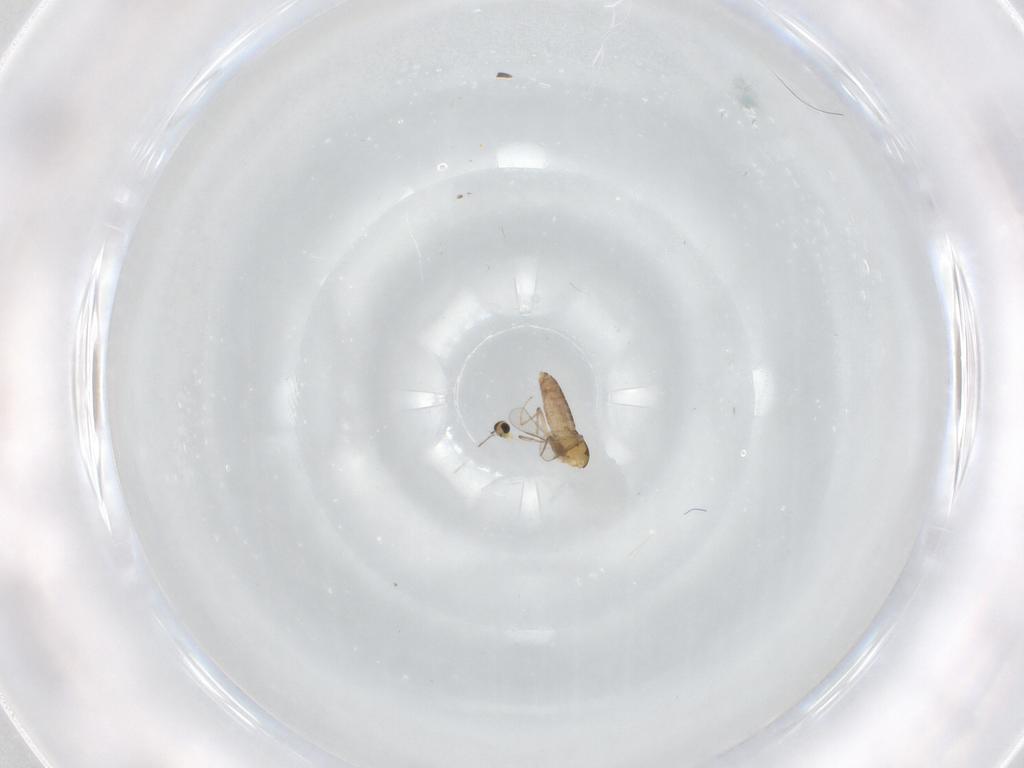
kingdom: Animalia
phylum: Arthropoda
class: Insecta
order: Diptera
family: Chironomidae
